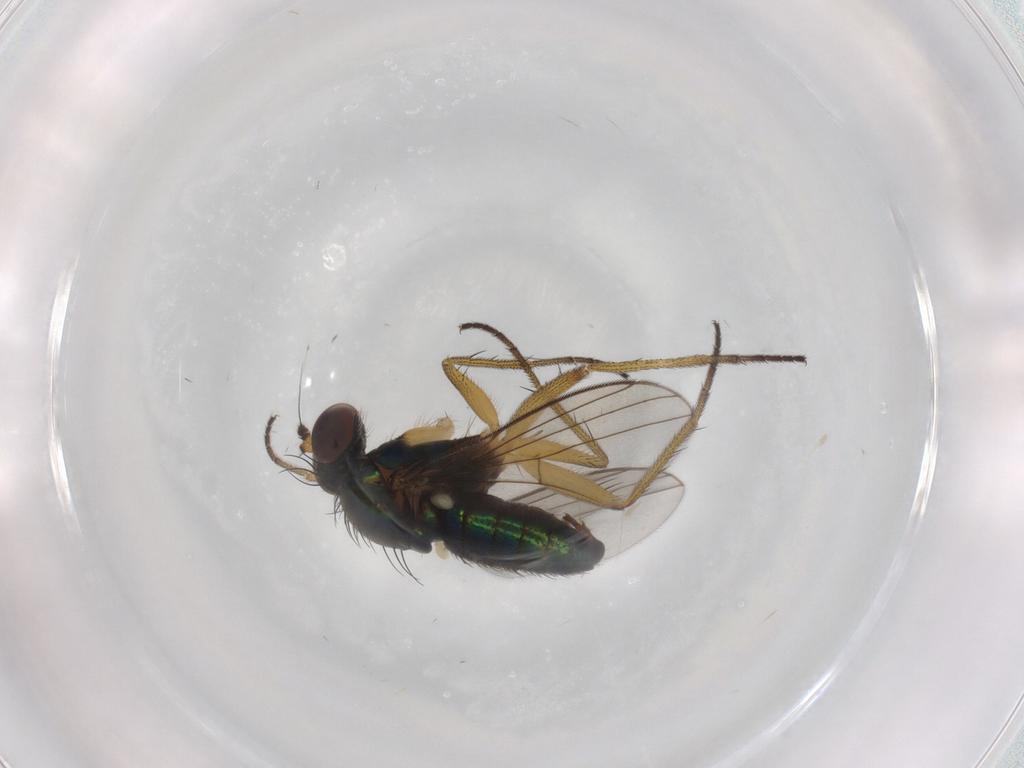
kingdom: Animalia
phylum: Arthropoda
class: Insecta
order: Diptera
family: Dolichopodidae
